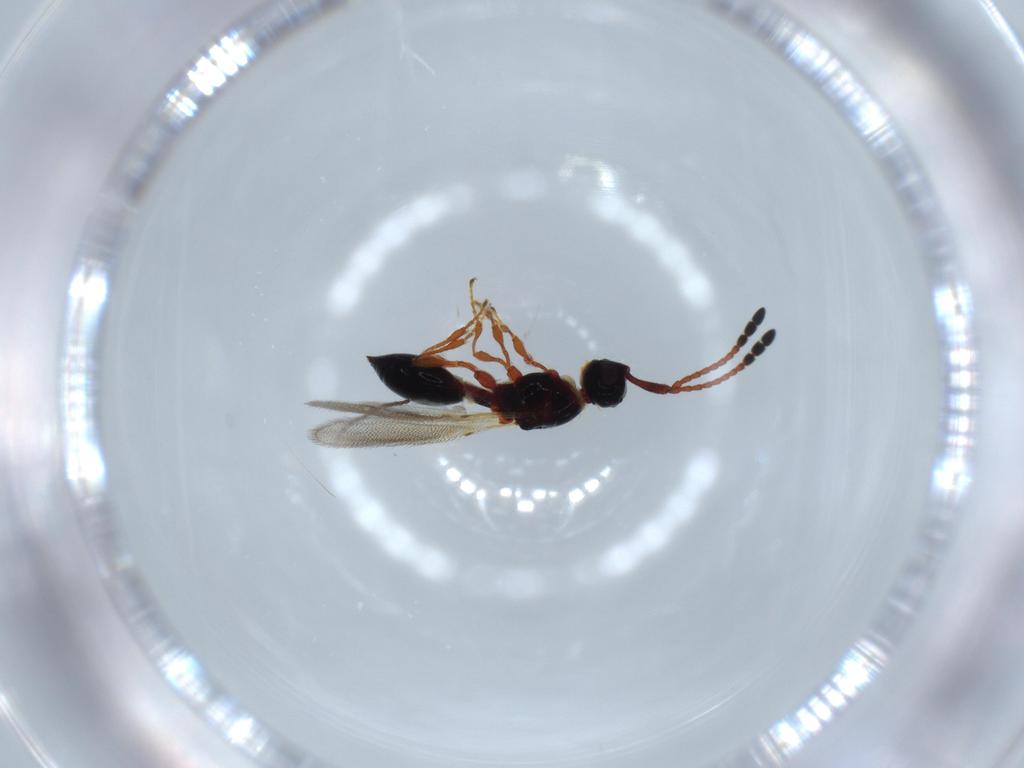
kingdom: Animalia
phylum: Arthropoda
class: Insecta
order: Hymenoptera
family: Diapriidae
